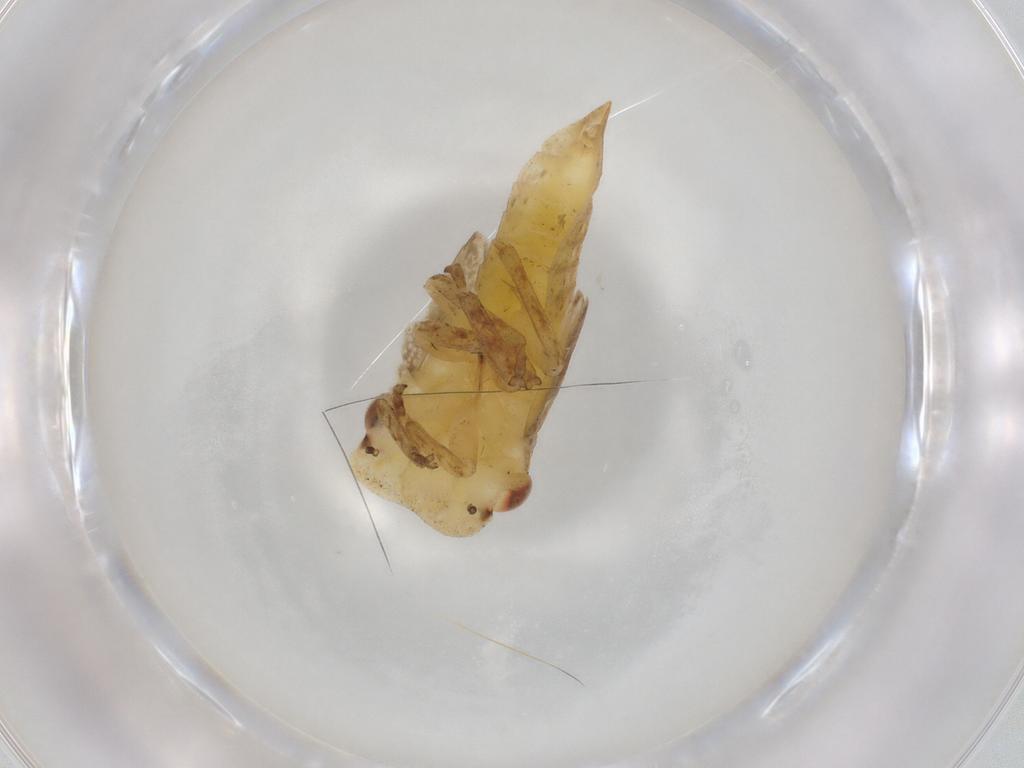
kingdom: Animalia
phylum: Arthropoda
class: Insecta
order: Hemiptera
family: Cicadellidae
